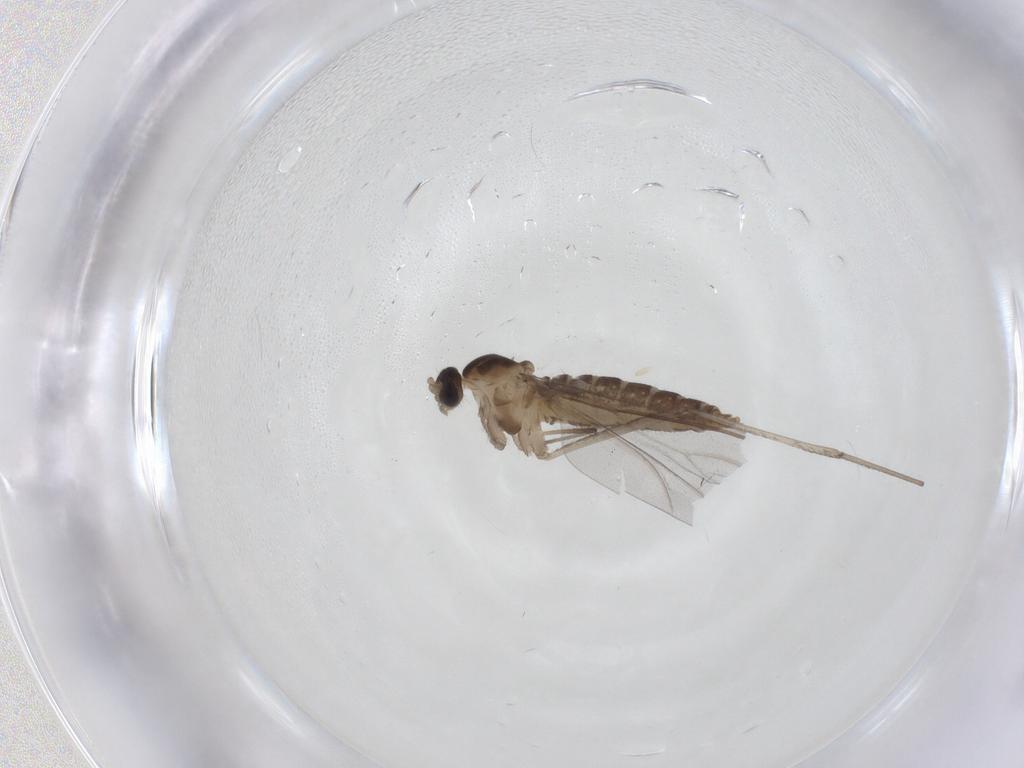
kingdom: Animalia
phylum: Arthropoda
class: Insecta
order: Diptera
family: Cecidomyiidae
